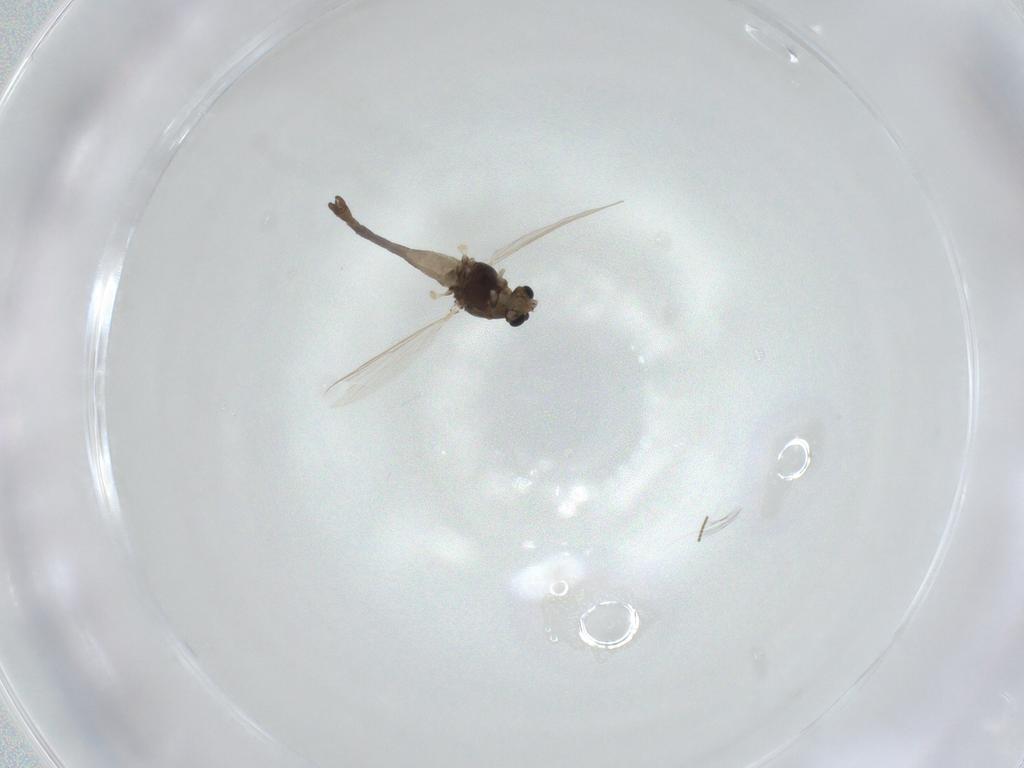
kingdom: Animalia
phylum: Arthropoda
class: Insecta
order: Diptera
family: Chironomidae
